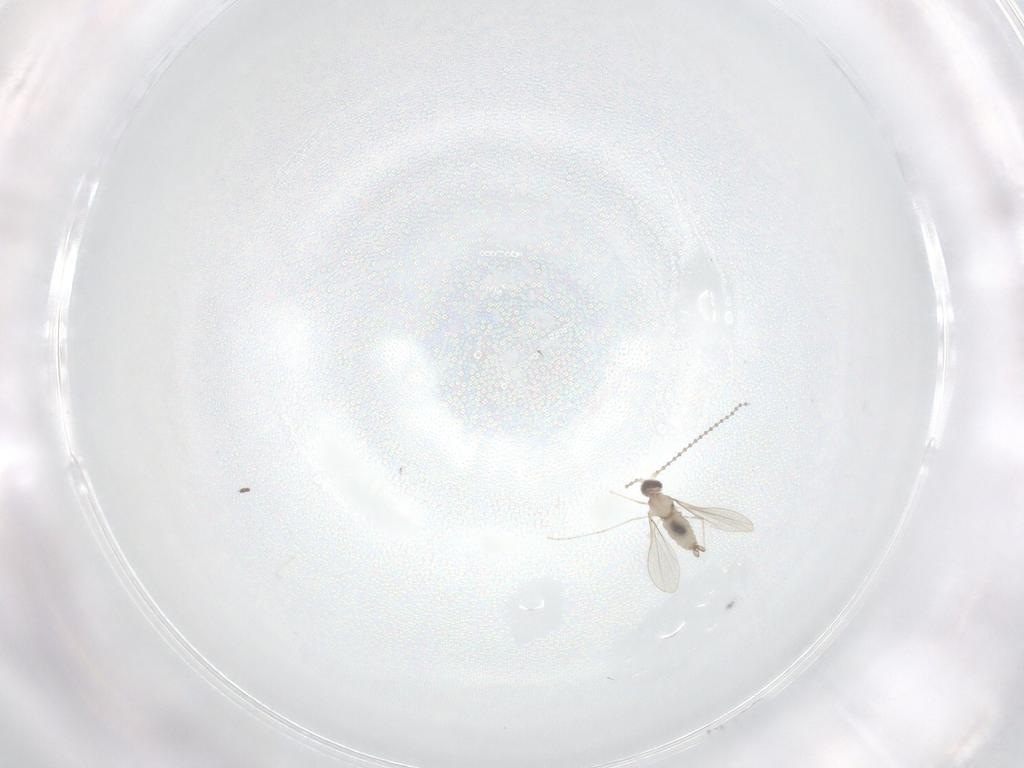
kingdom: Animalia
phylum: Arthropoda
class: Insecta
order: Diptera
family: Cecidomyiidae
